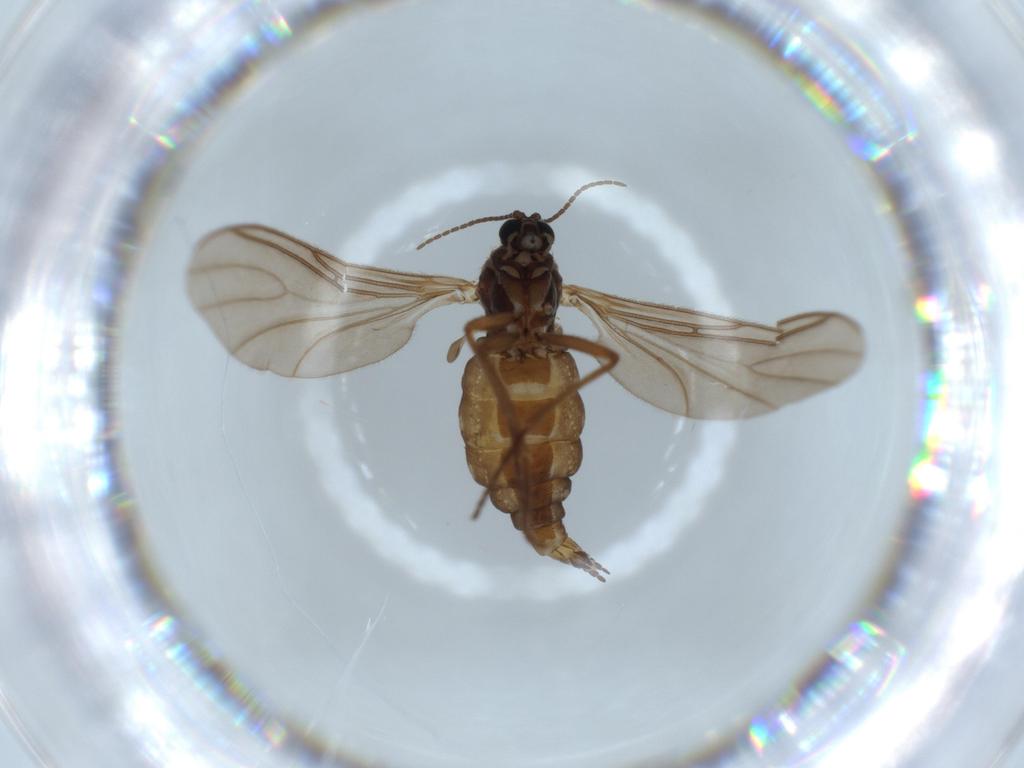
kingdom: Animalia
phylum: Arthropoda
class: Insecta
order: Diptera
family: Sciaridae
